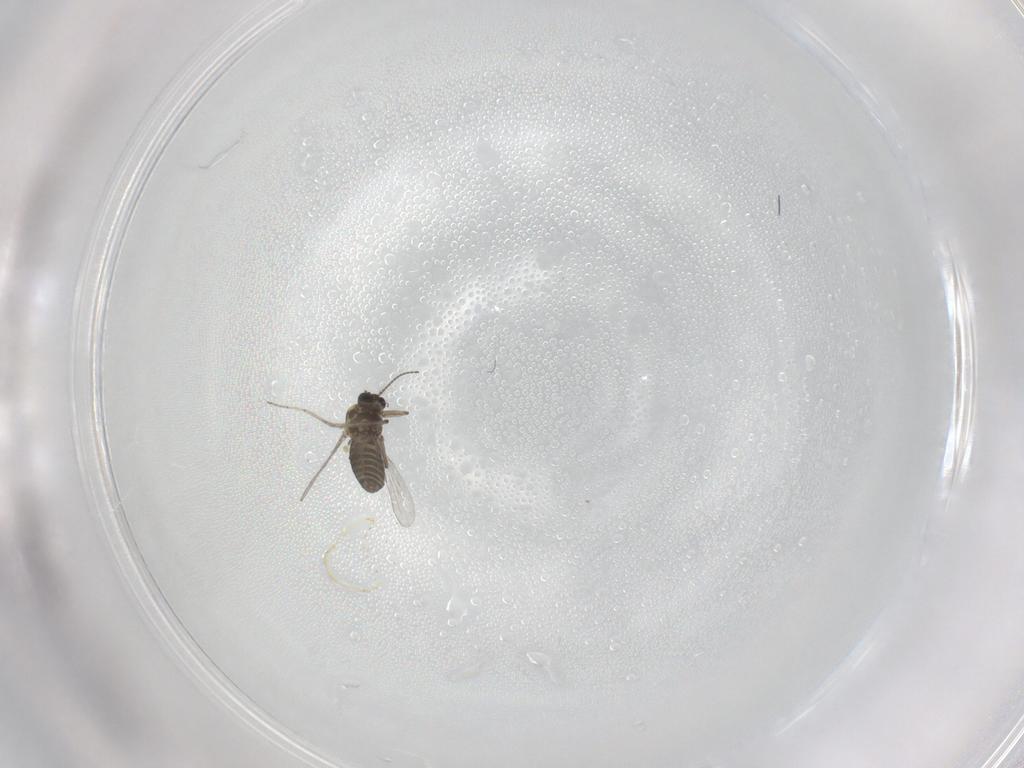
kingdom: Animalia
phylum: Arthropoda
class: Insecta
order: Diptera
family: Ceratopogonidae
